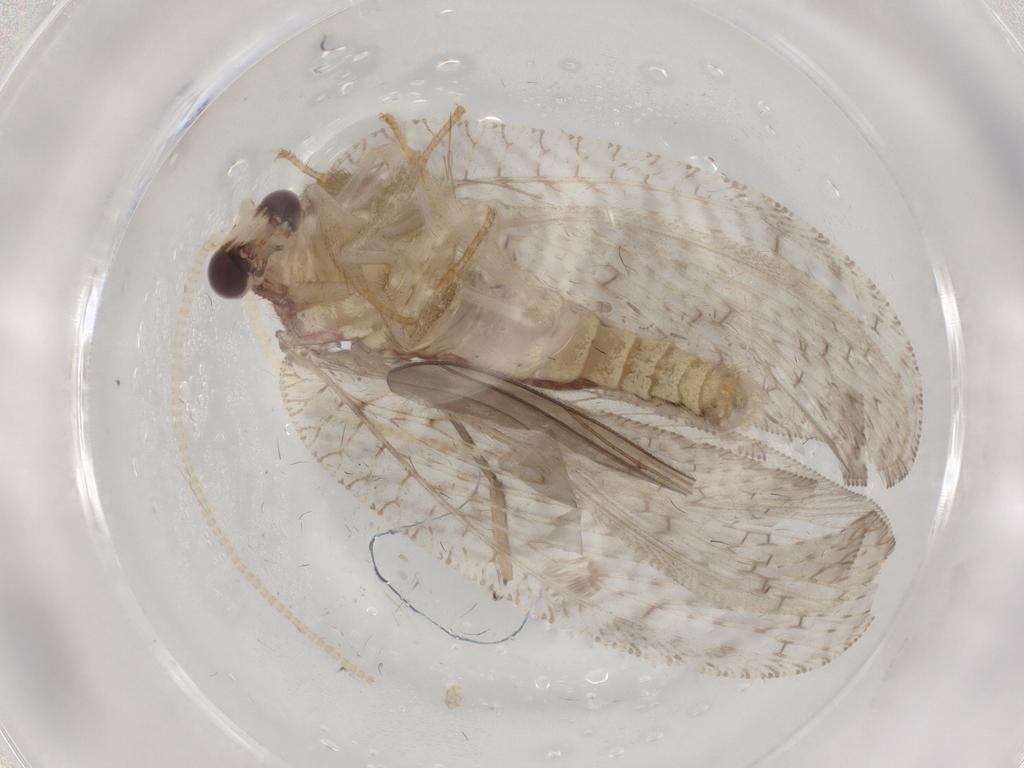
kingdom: Animalia
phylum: Arthropoda
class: Insecta
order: Neuroptera
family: Hemerobiidae
